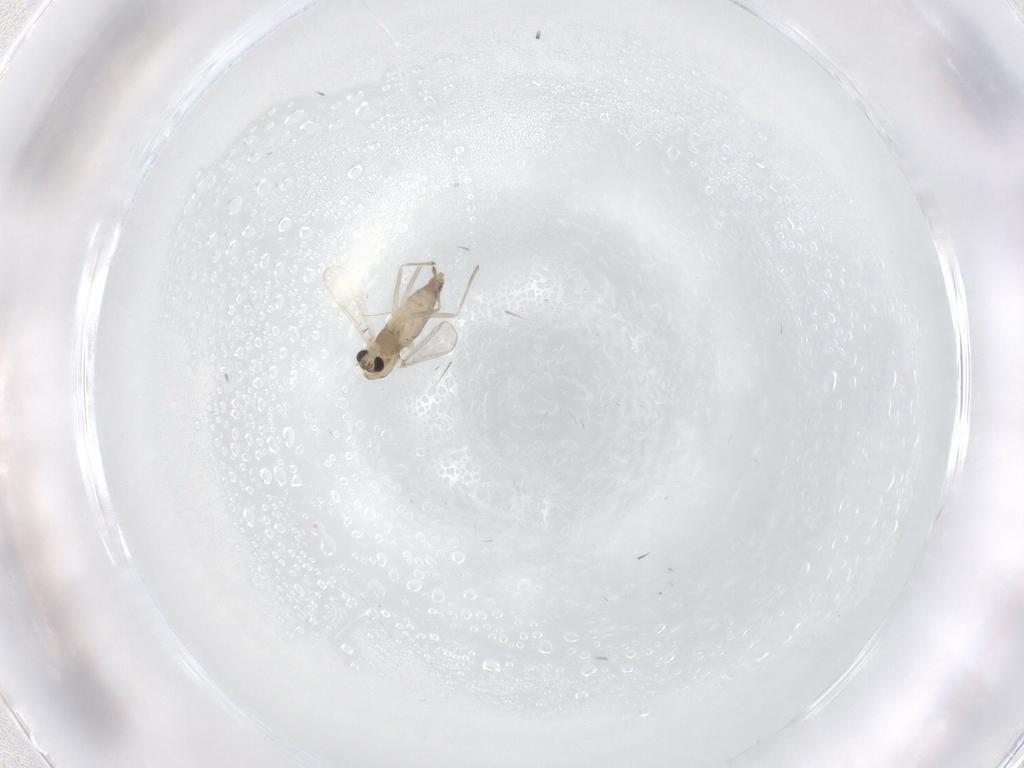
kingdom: Animalia
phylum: Arthropoda
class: Insecta
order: Diptera
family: Chironomidae
